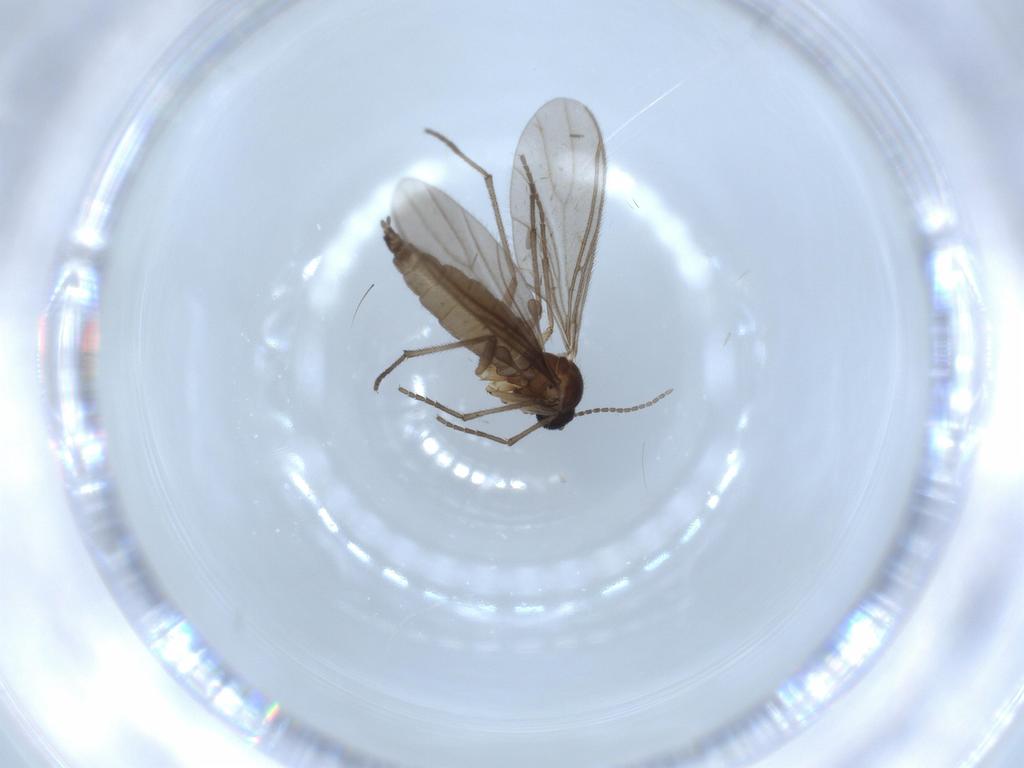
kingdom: Animalia
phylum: Arthropoda
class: Insecta
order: Diptera
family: Sciaridae
